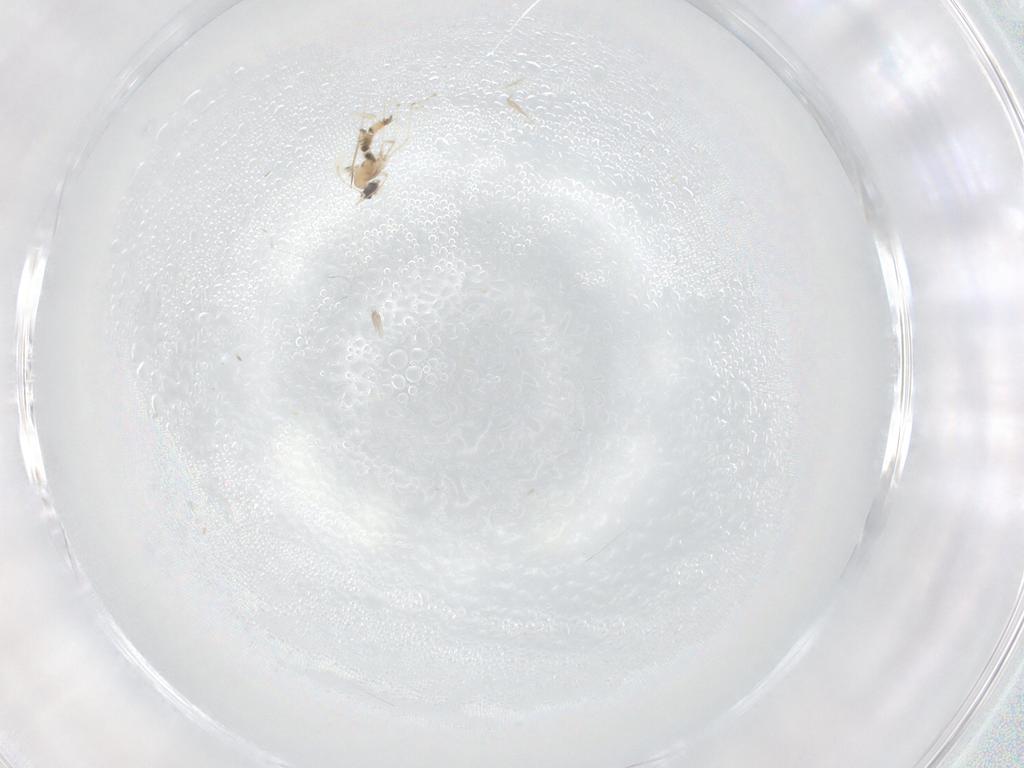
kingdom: Animalia
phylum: Arthropoda
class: Insecta
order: Diptera
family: Cecidomyiidae
